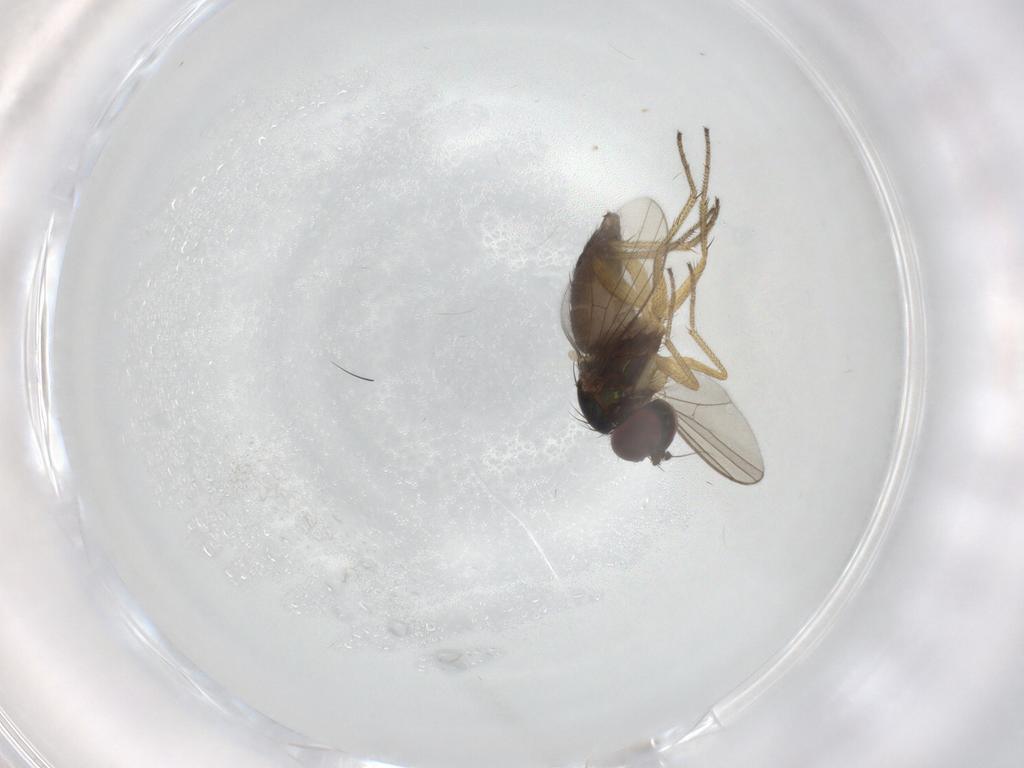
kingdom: Animalia
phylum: Arthropoda
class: Insecta
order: Diptera
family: Dolichopodidae
